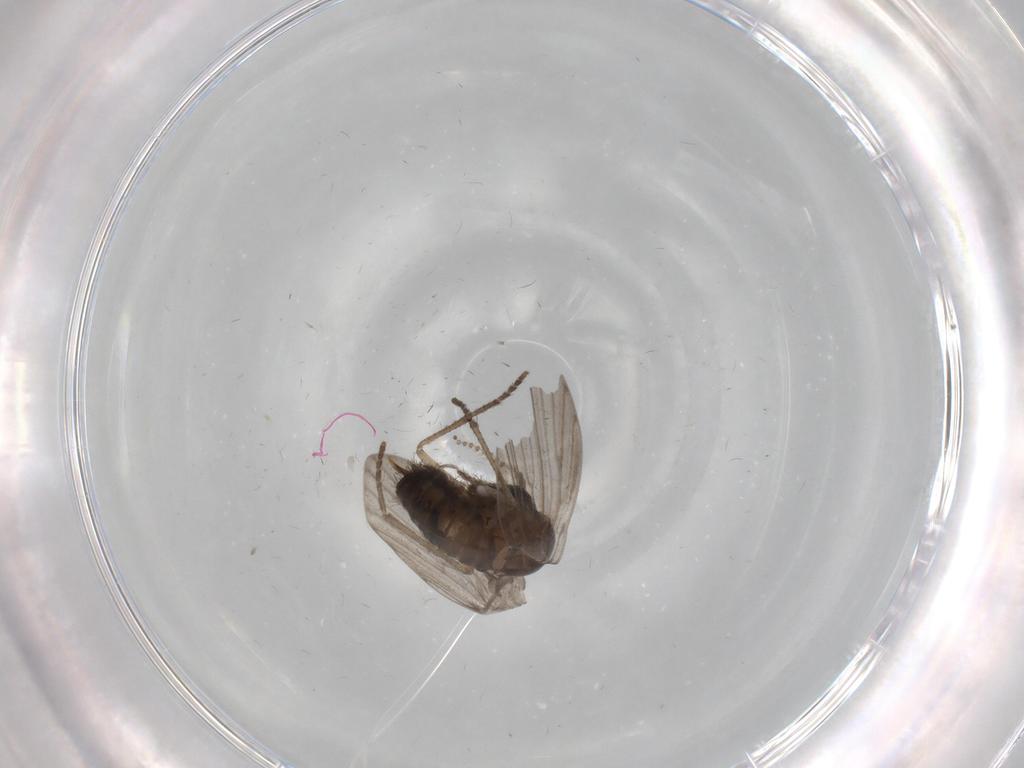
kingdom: Animalia
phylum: Arthropoda
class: Insecta
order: Diptera
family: Psychodidae
